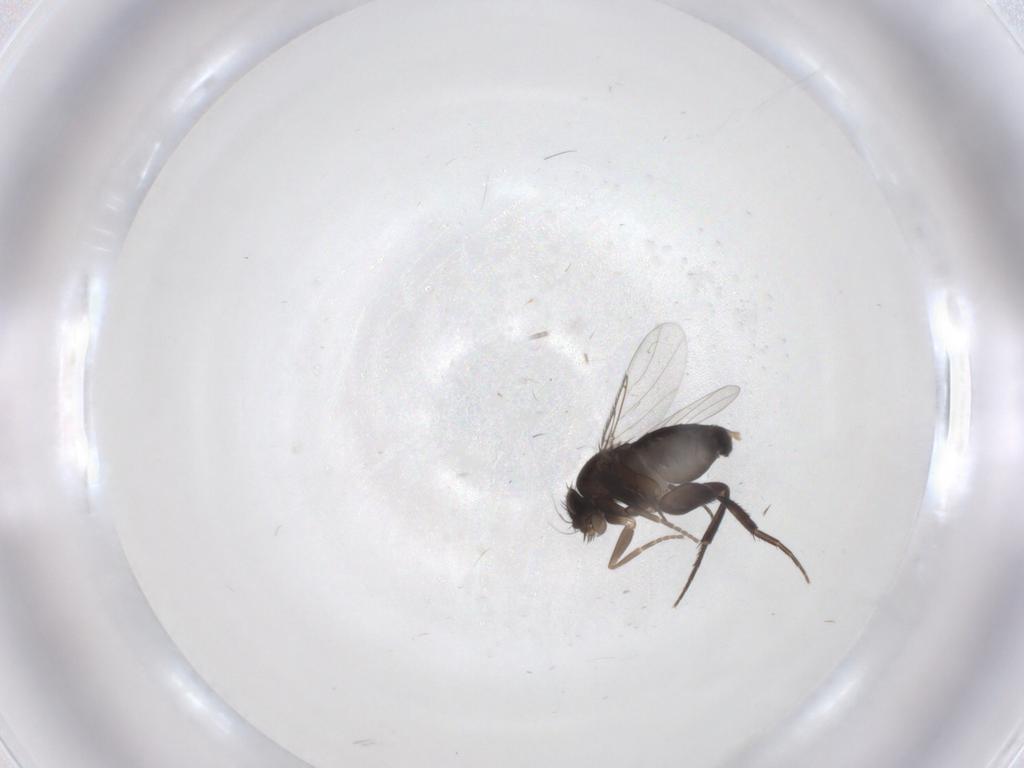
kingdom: Animalia
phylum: Arthropoda
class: Insecta
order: Diptera
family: Phoridae
